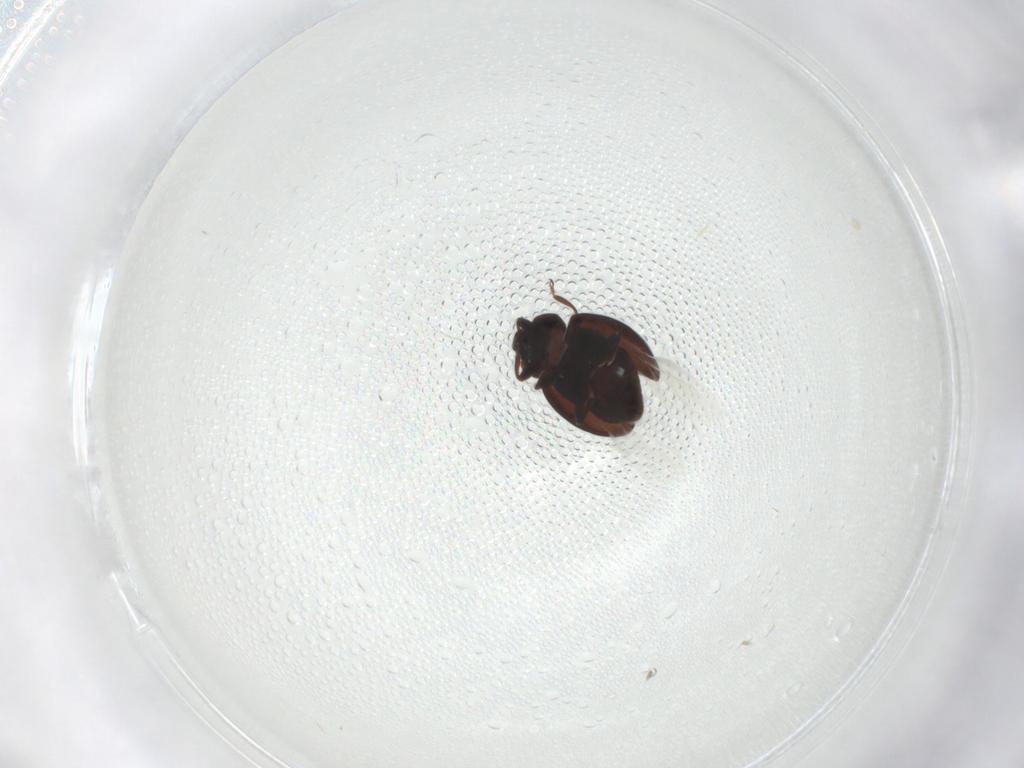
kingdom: Animalia
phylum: Arthropoda
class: Insecta
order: Coleoptera
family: Coccinellidae
